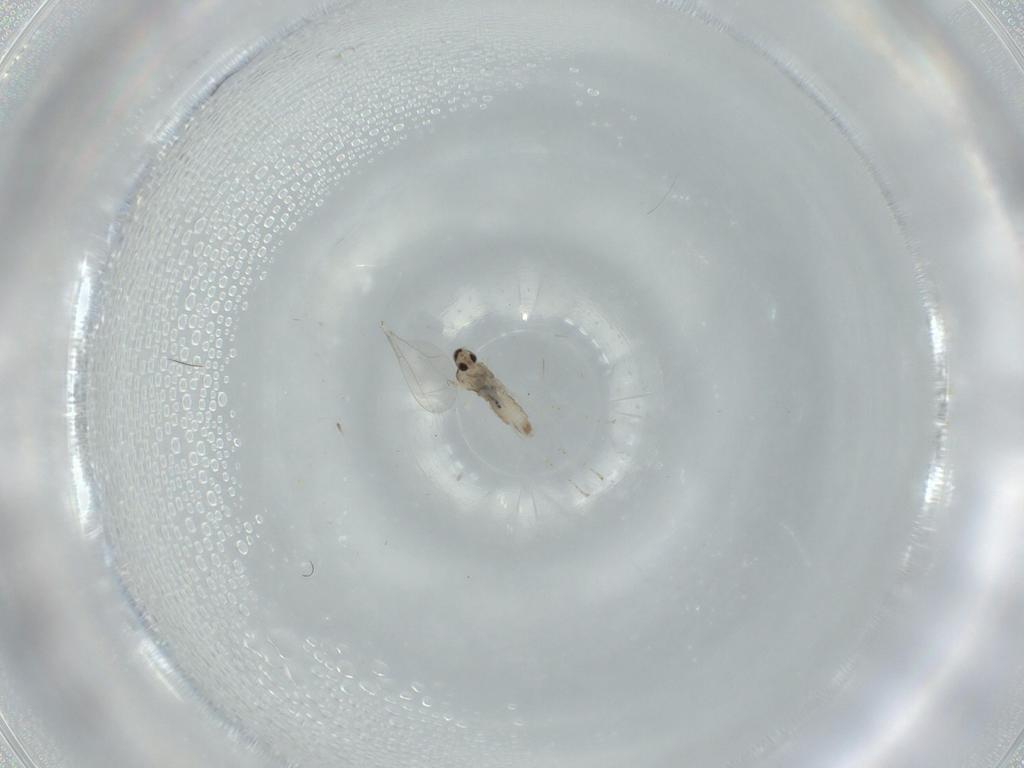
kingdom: Animalia
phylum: Arthropoda
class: Insecta
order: Diptera
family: Cecidomyiidae
